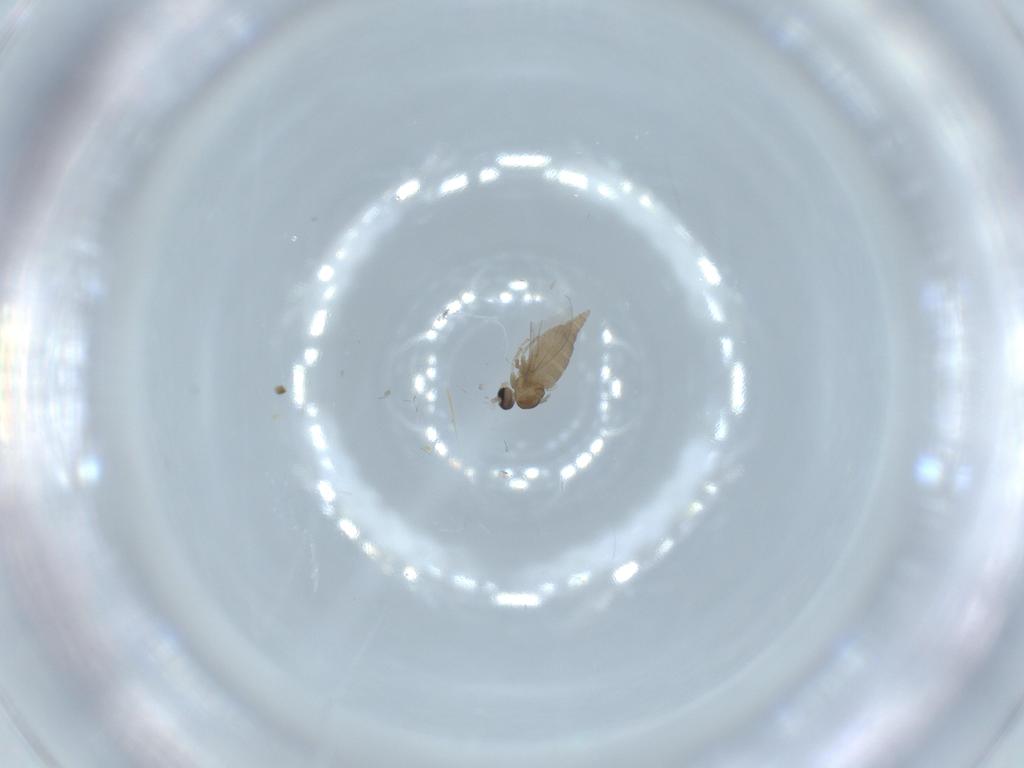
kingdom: Animalia
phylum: Arthropoda
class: Insecta
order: Diptera
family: Cecidomyiidae
